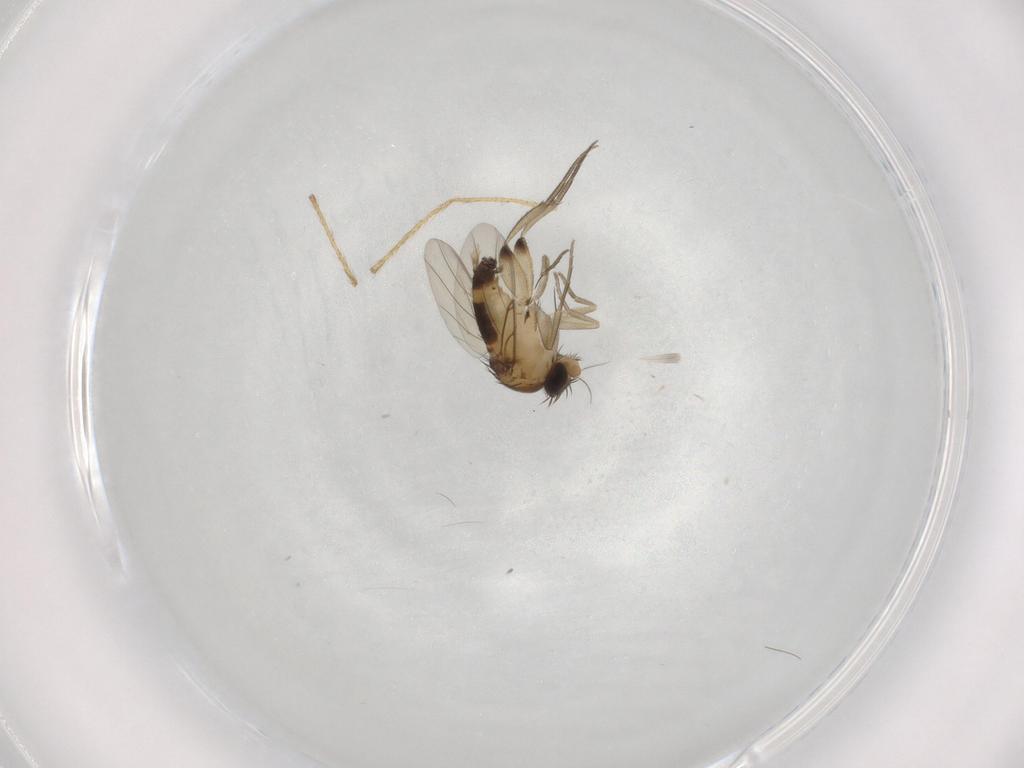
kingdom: Animalia
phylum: Arthropoda
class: Insecta
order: Diptera
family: Phoridae
